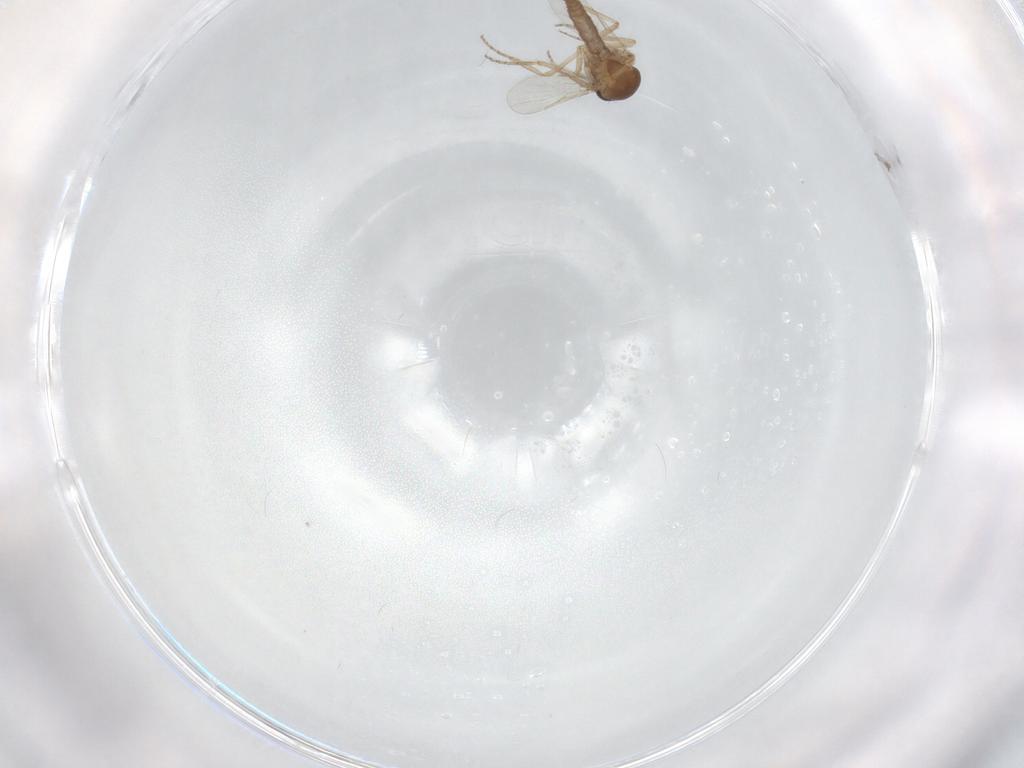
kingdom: Animalia
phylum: Arthropoda
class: Insecta
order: Diptera
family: Ceratopogonidae
